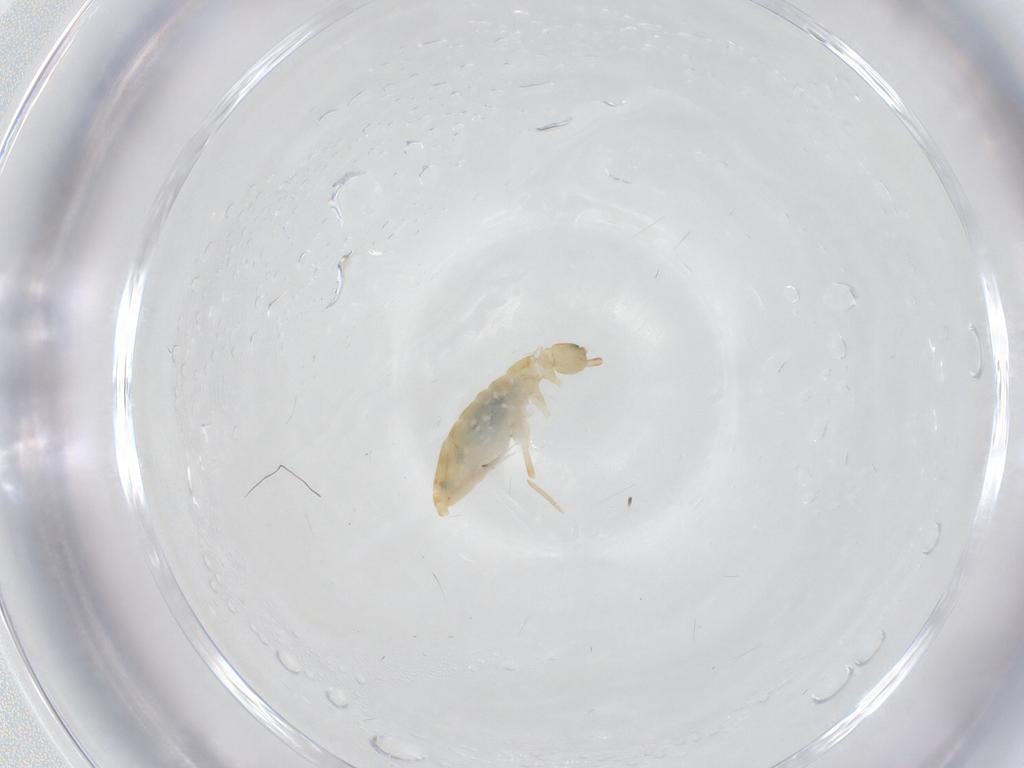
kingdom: Animalia
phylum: Arthropoda
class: Collembola
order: Entomobryomorpha
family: Entomobryidae
